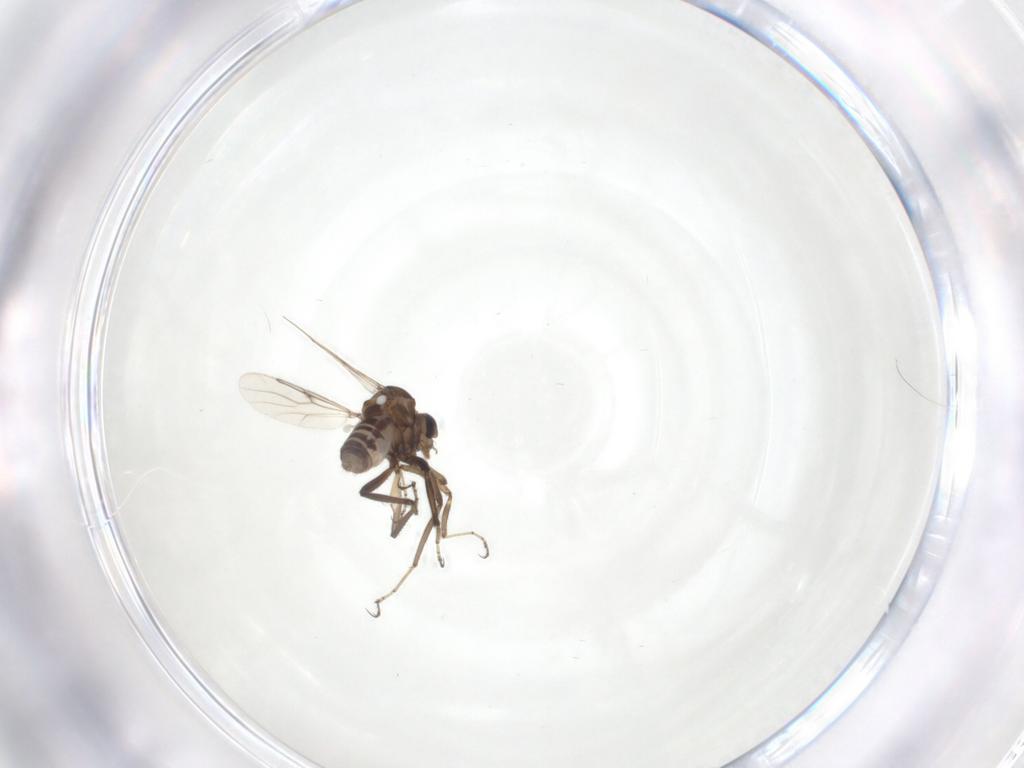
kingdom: Animalia
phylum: Arthropoda
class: Insecta
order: Diptera
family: Ceratopogonidae
